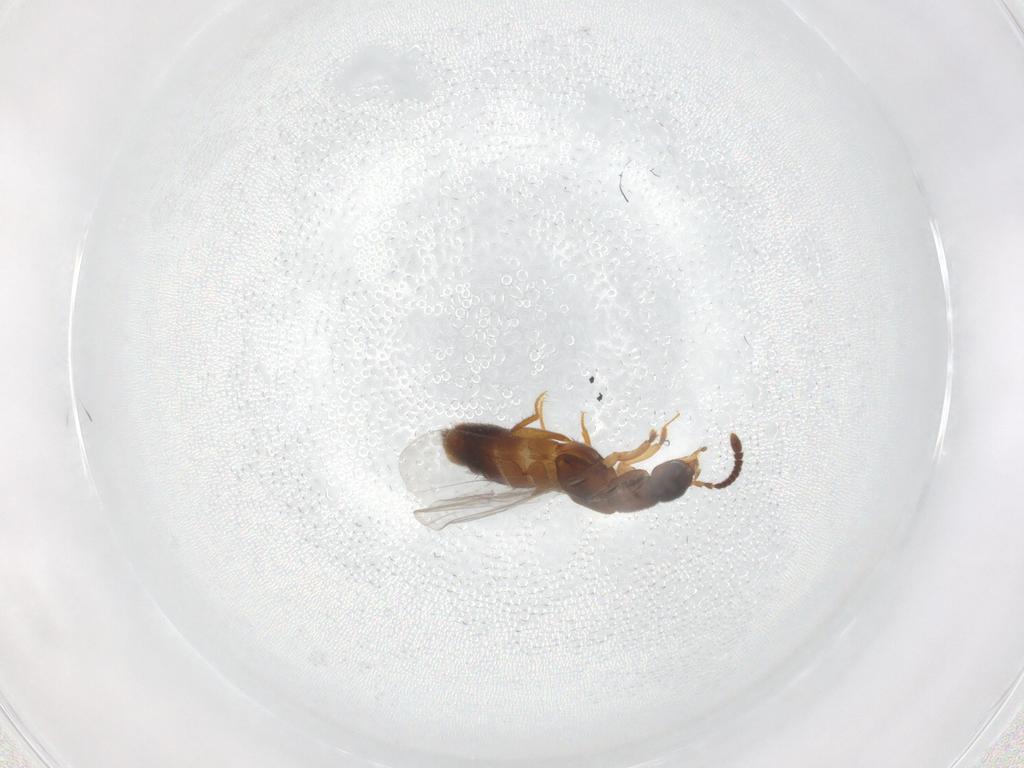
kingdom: Animalia
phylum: Arthropoda
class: Insecta
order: Coleoptera
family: Staphylinidae
